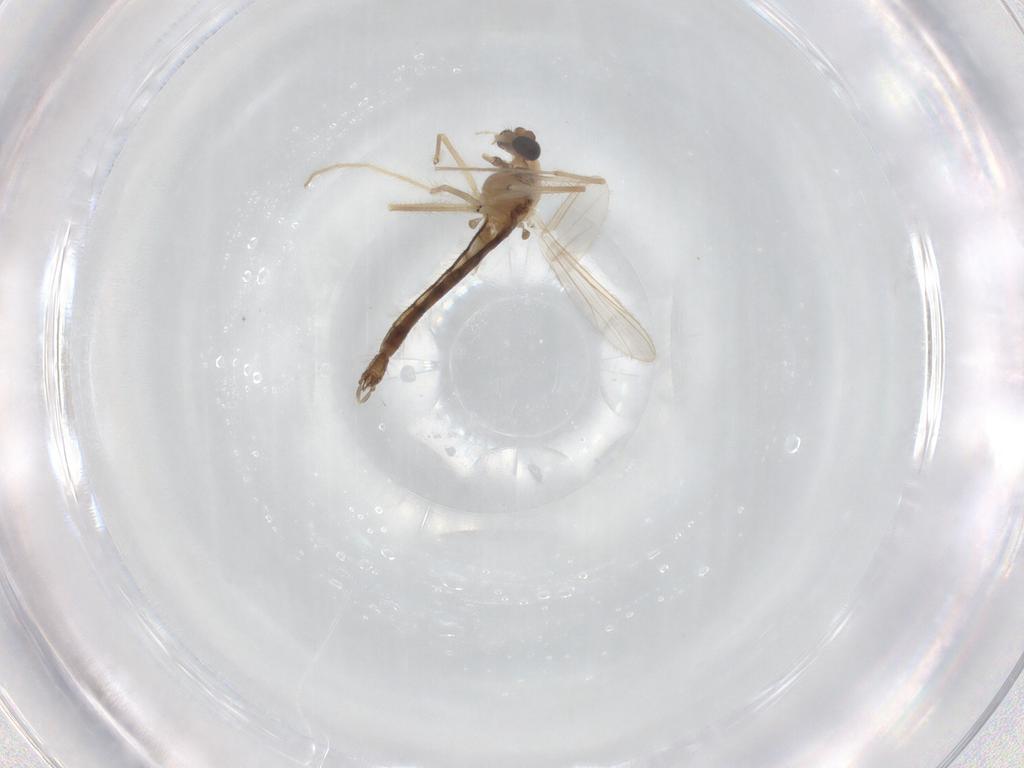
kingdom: Animalia
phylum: Arthropoda
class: Insecta
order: Diptera
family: Chironomidae
